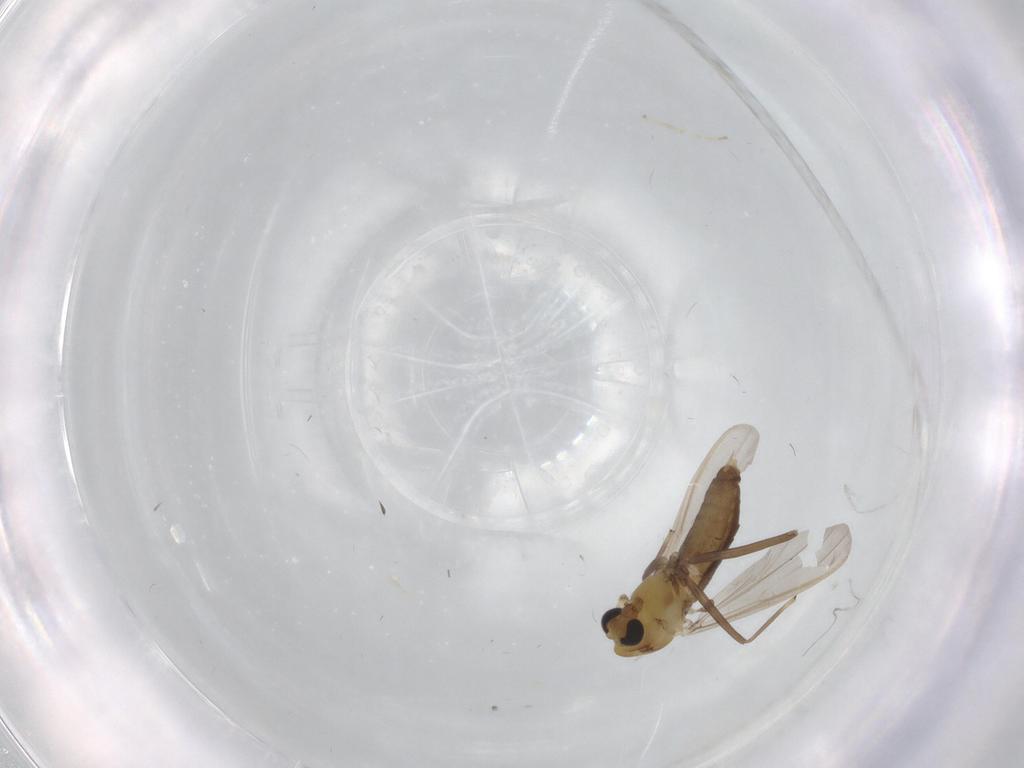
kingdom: Animalia
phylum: Arthropoda
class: Insecta
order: Diptera
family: Chironomidae
